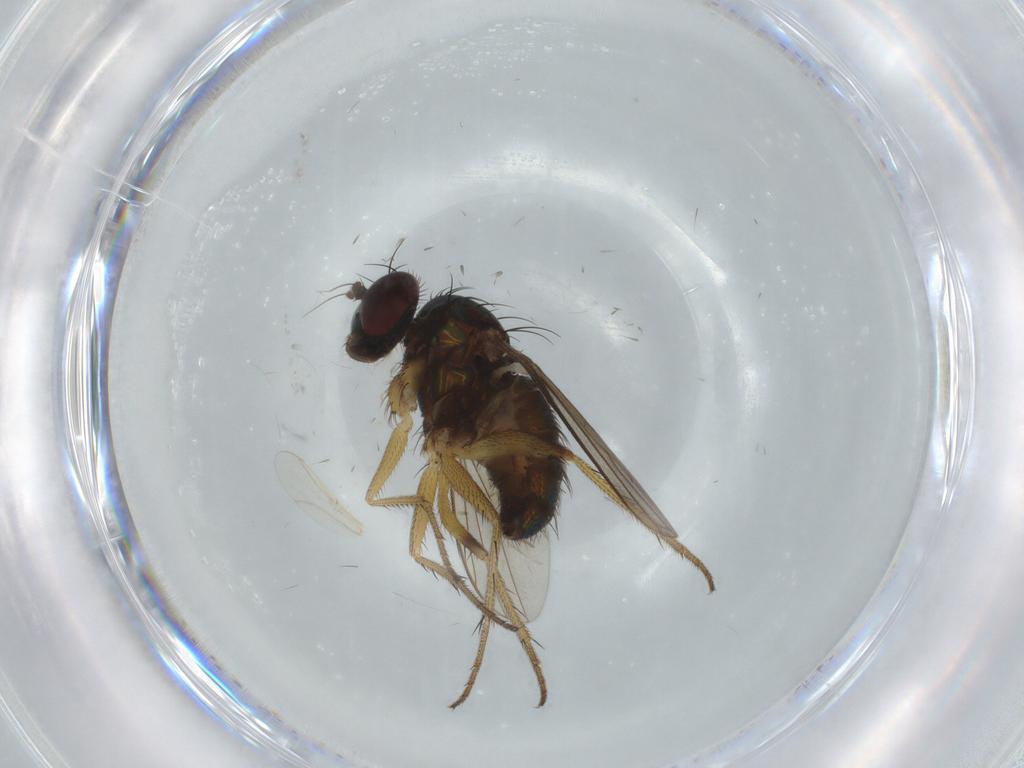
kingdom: Animalia
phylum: Arthropoda
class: Insecta
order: Diptera
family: Dolichopodidae
